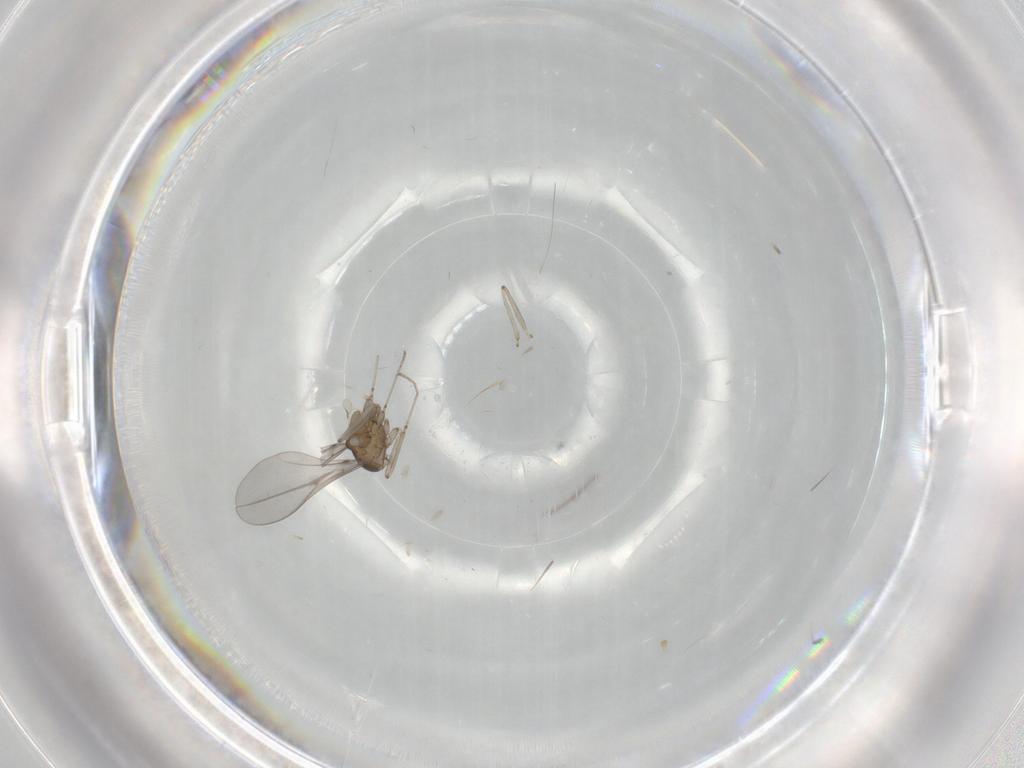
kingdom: Animalia
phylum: Arthropoda
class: Insecta
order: Diptera
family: Cecidomyiidae
